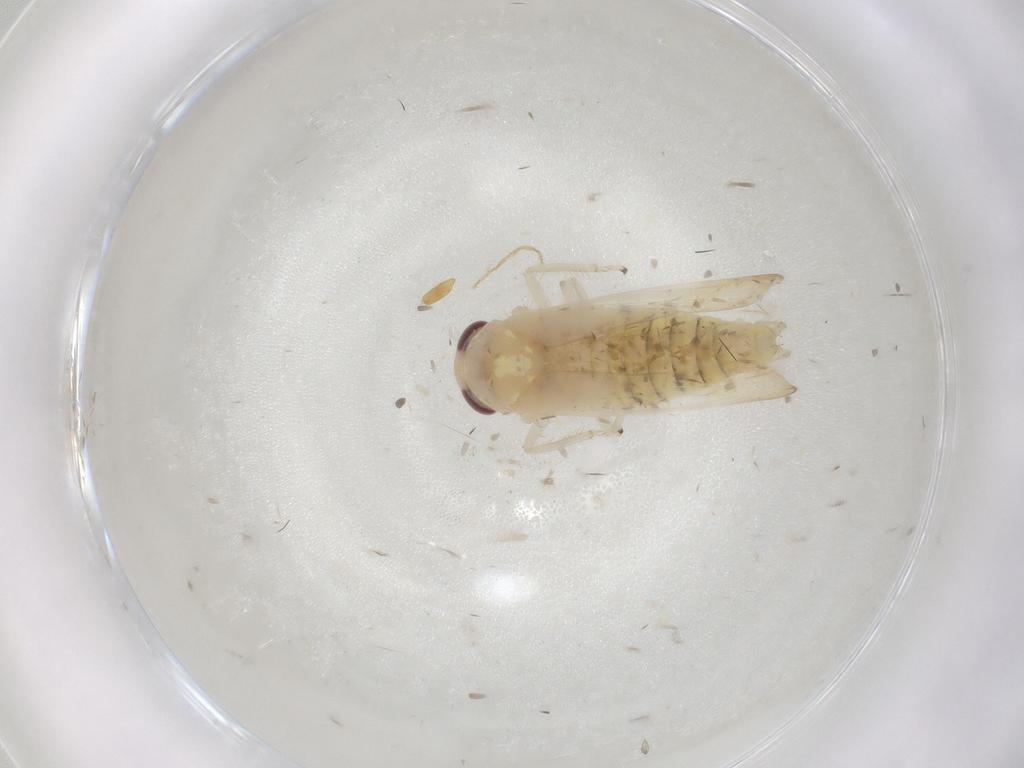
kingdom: Animalia
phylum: Arthropoda
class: Insecta
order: Hemiptera
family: Cicadellidae
